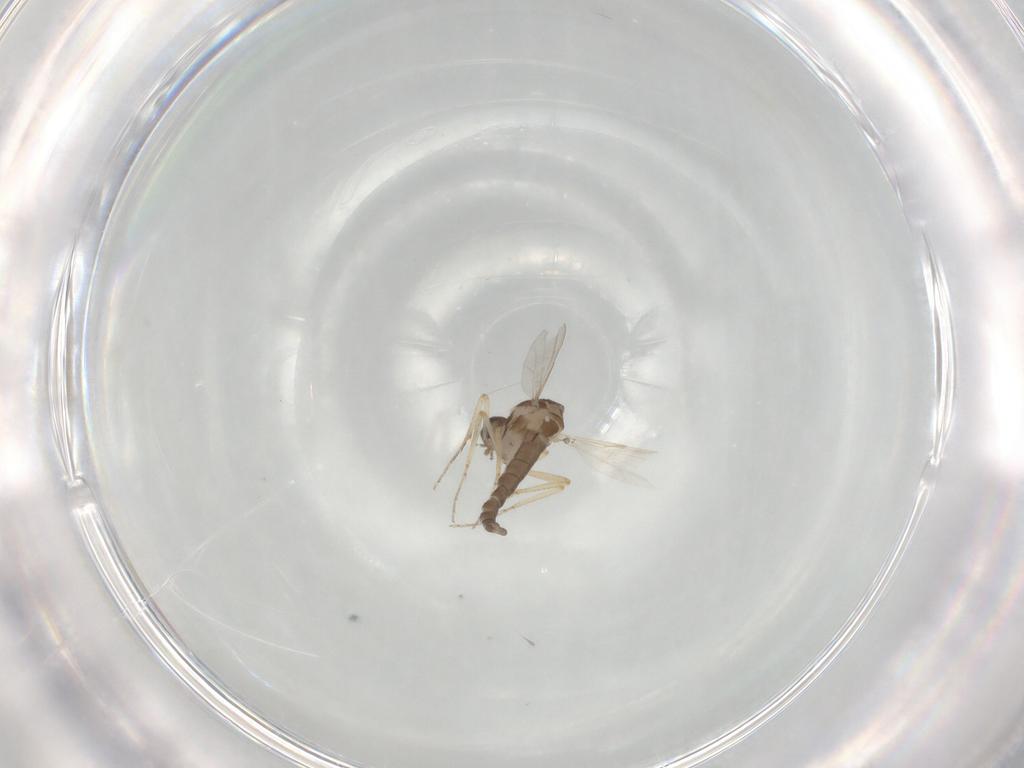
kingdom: Animalia
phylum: Arthropoda
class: Insecta
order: Diptera
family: Ceratopogonidae
